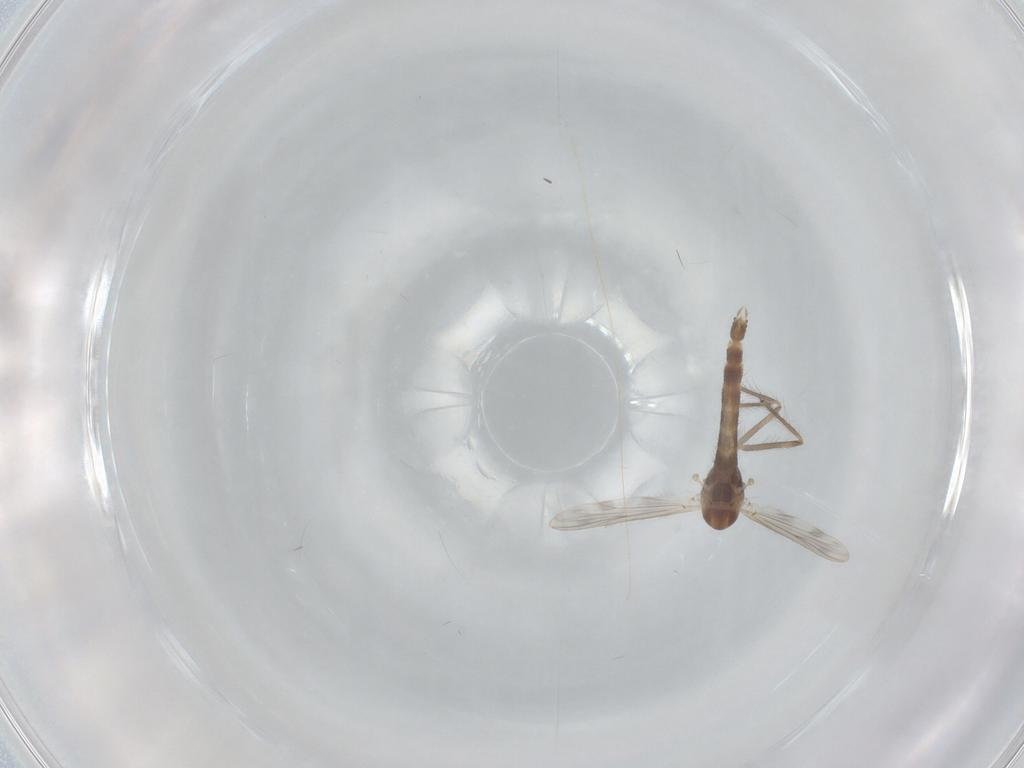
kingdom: Animalia
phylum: Arthropoda
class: Insecta
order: Diptera
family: Chironomidae
